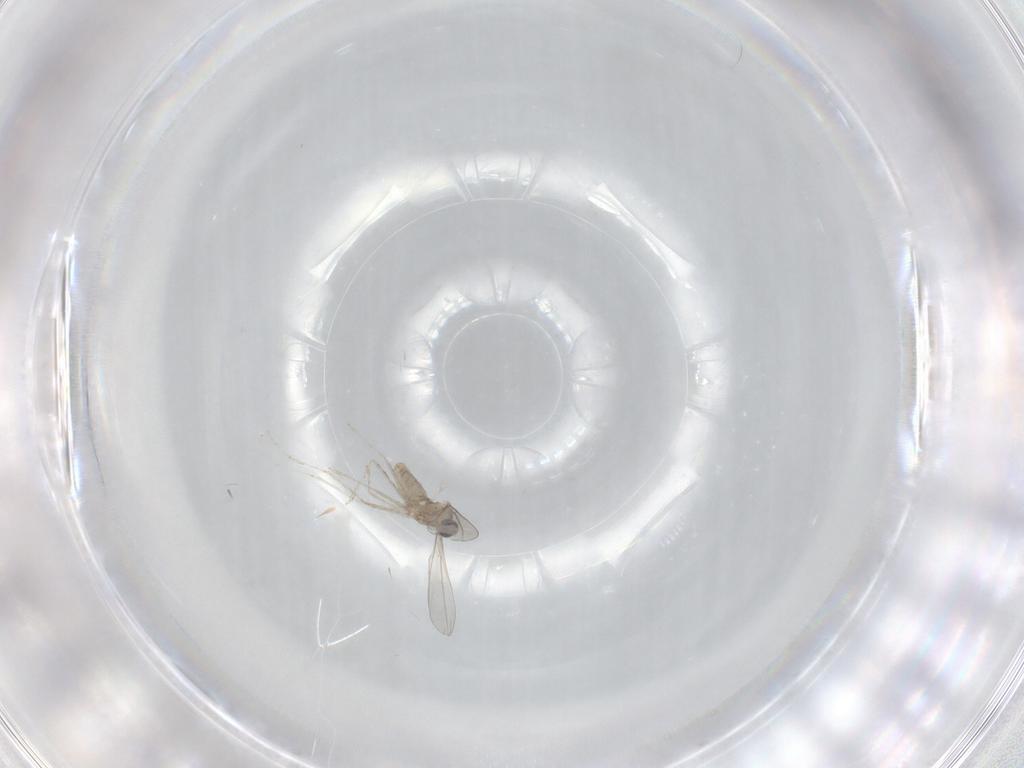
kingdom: Animalia
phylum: Arthropoda
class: Insecta
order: Diptera
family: Cecidomyiidae
